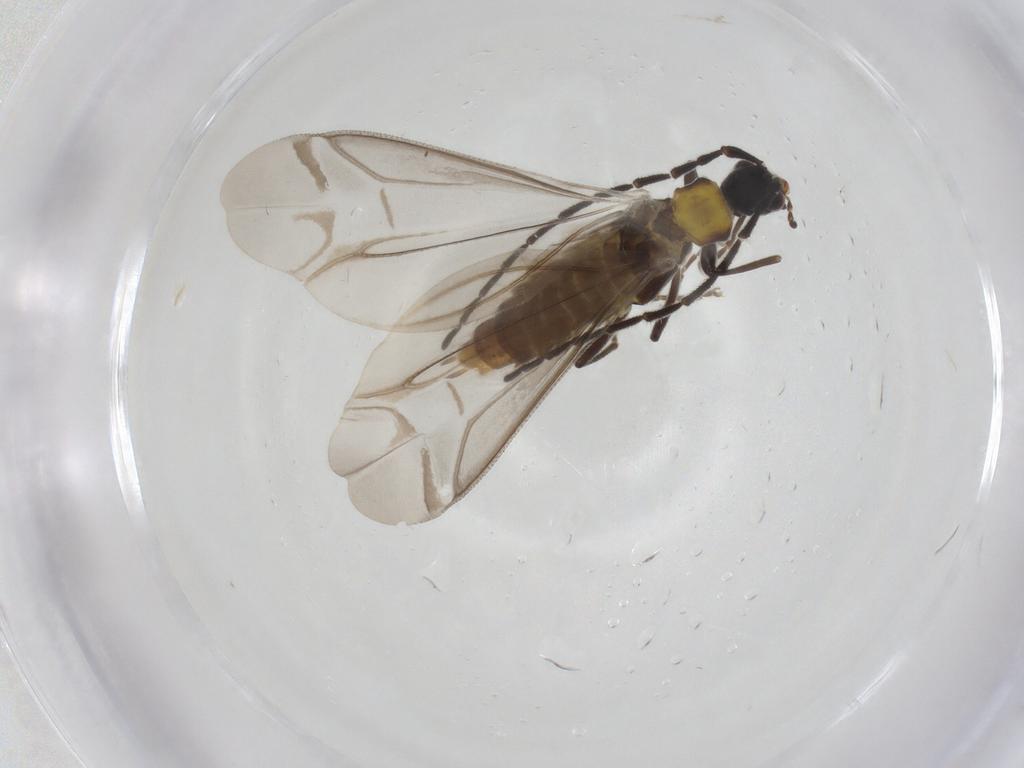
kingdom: Animalia
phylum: Arthropoda
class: Insecta
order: Coleoptera
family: Cantharidae
